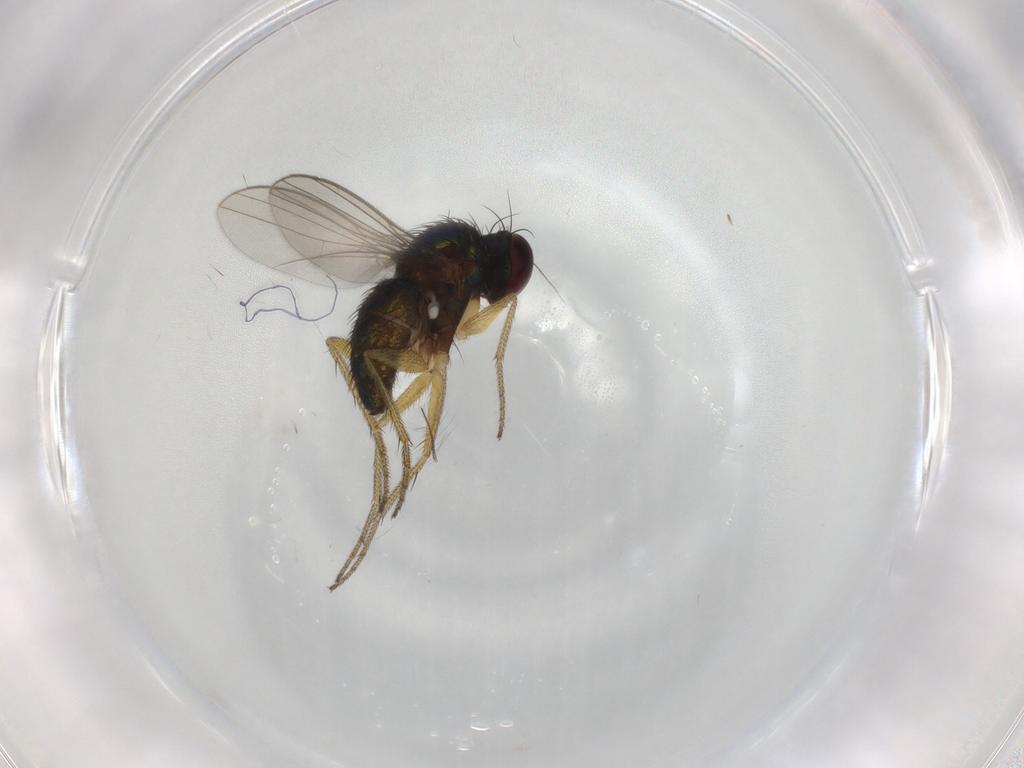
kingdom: Animalia
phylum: Arthropoda
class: Insecta
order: Diptera
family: Chironomidae
